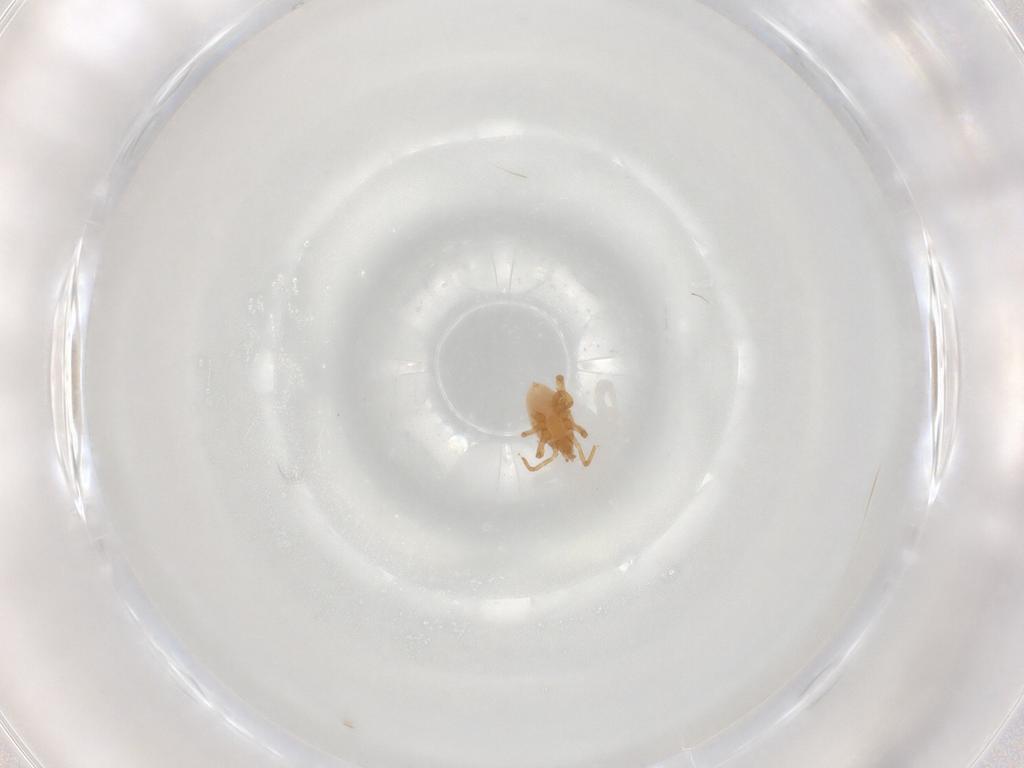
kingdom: Animalia
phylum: Arthropoda
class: Arachnida
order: Mesostigmata
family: Parasitidae
